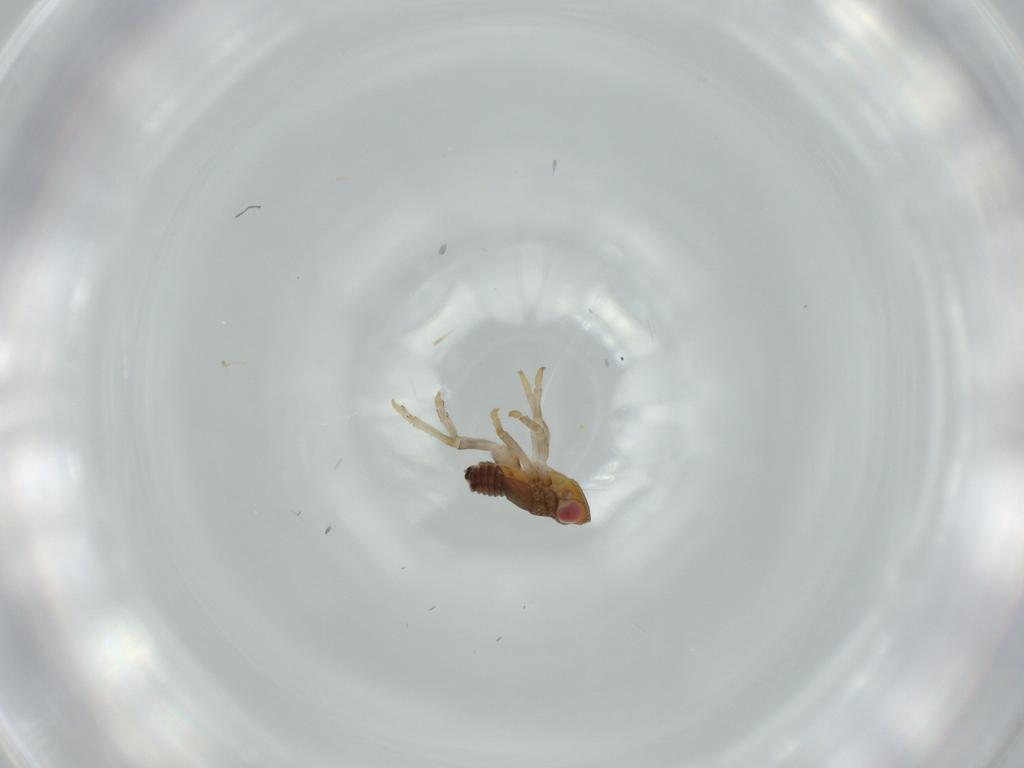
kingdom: Animalia
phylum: Arthropoda
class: Insecta
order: Hemiptera
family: Issidae
